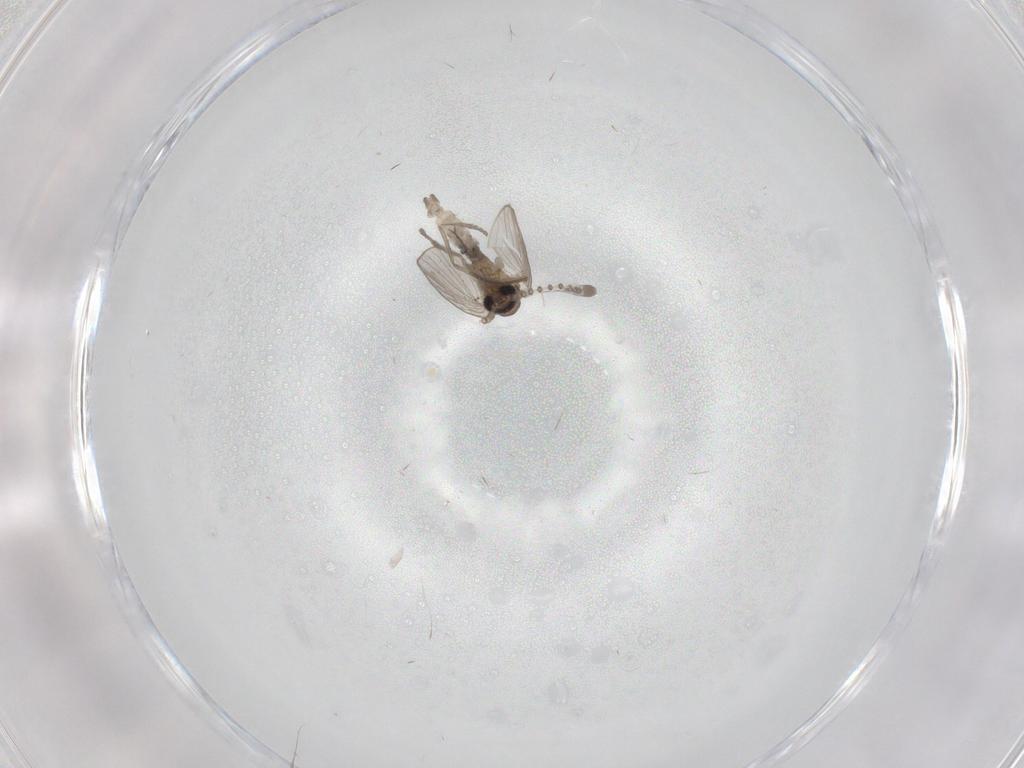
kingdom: Animalia
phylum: Arthropoda
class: Insecta
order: Diptera
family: Psychodidae
